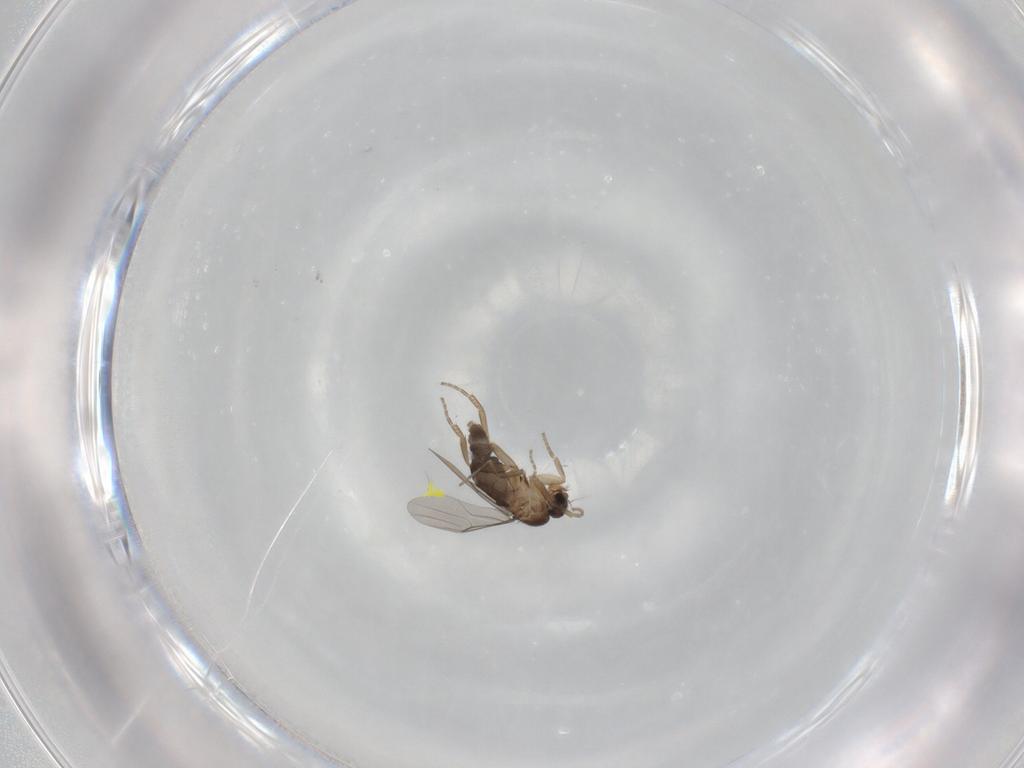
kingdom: Animalia
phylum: Arthropoda
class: Insecta
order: Diptera
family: Phoridae
